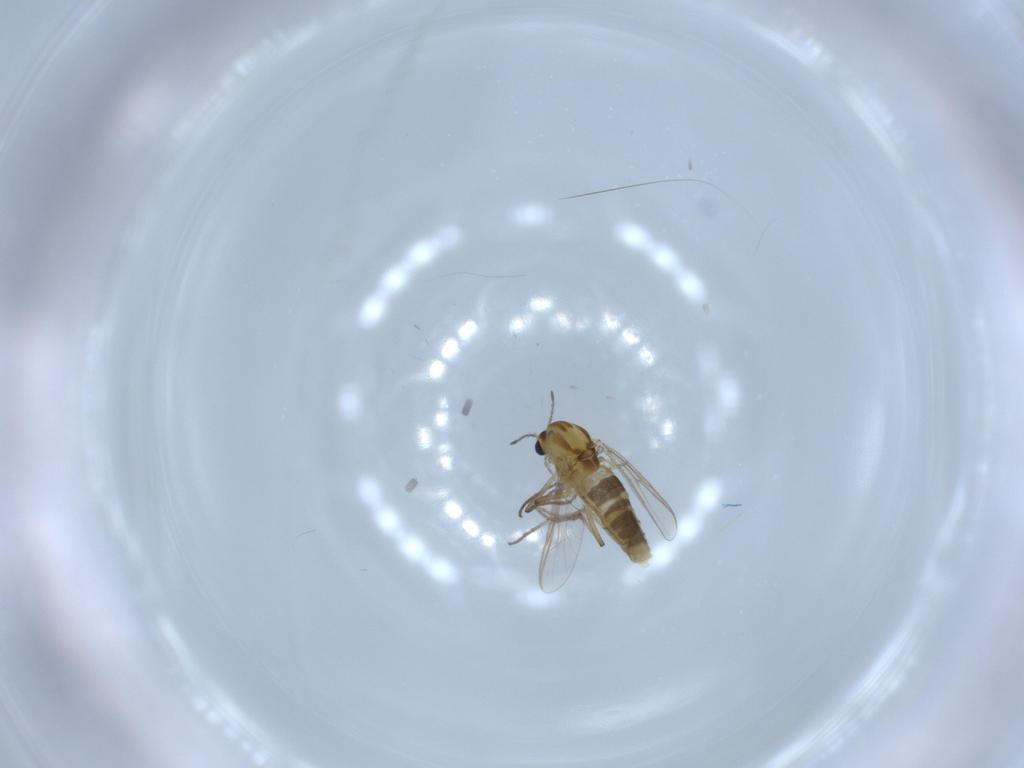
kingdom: Animalia
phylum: Arthropoda
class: Insecta
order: Diptera
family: Chironomidae
